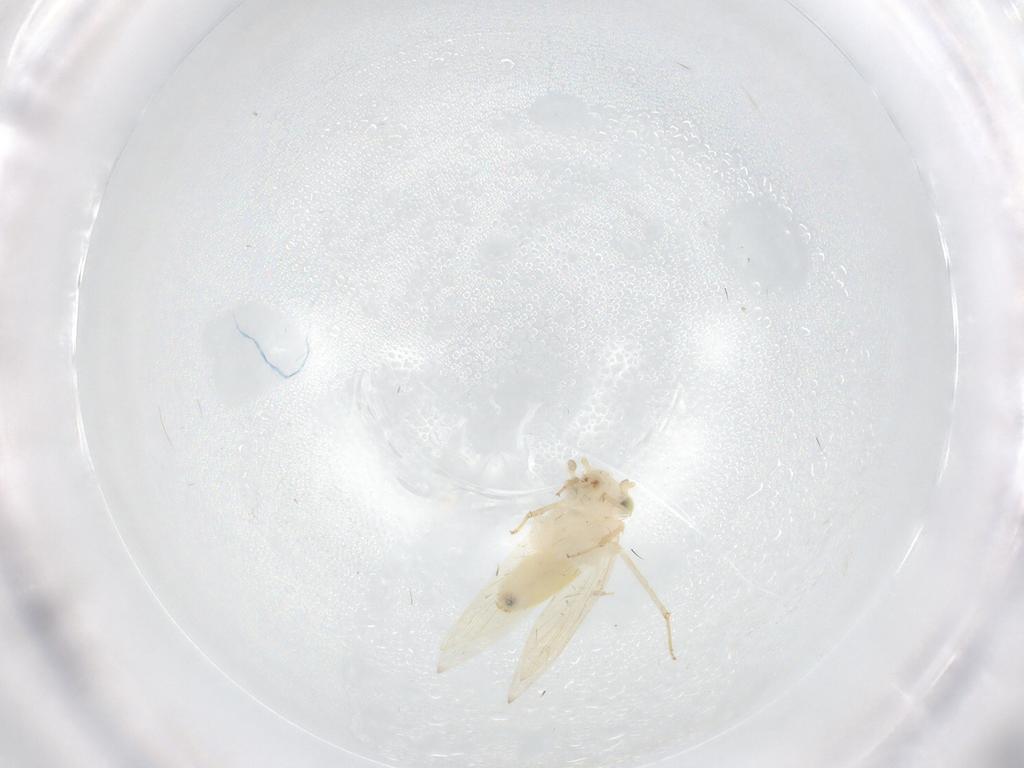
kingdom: Animalia
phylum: Arthropoda
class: Insecta
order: Psocodea
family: Lepidopsocidae
